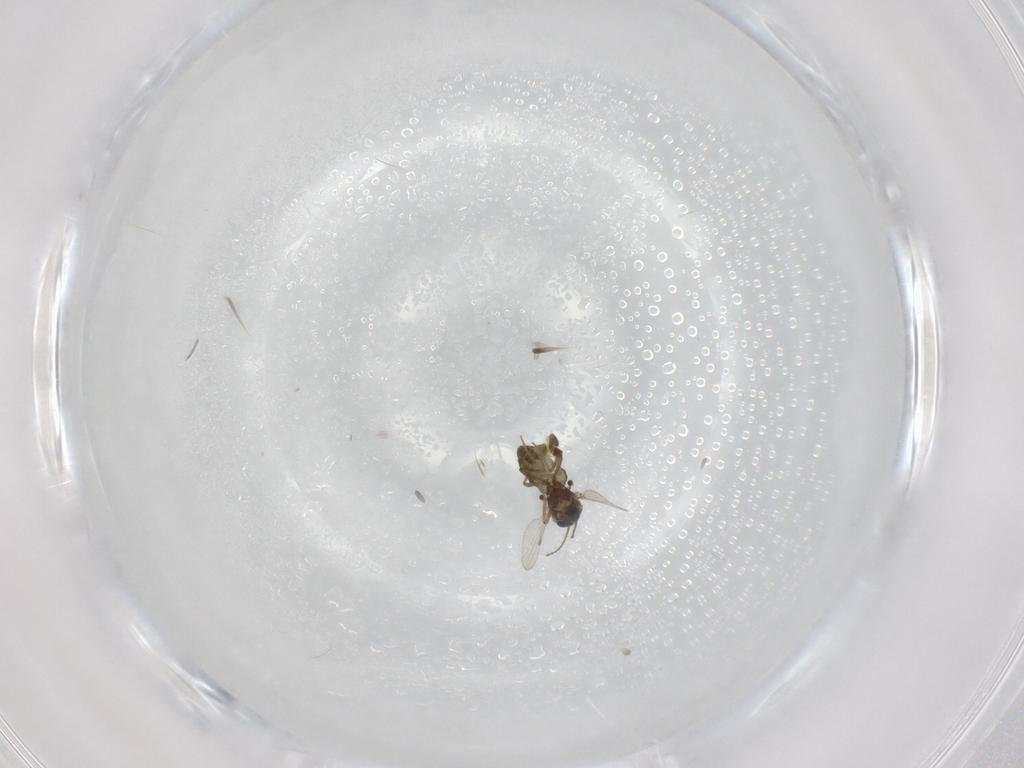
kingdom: Animalia
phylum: Arthropoda
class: Insecta
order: Diptera
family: Ceratopogonidae
